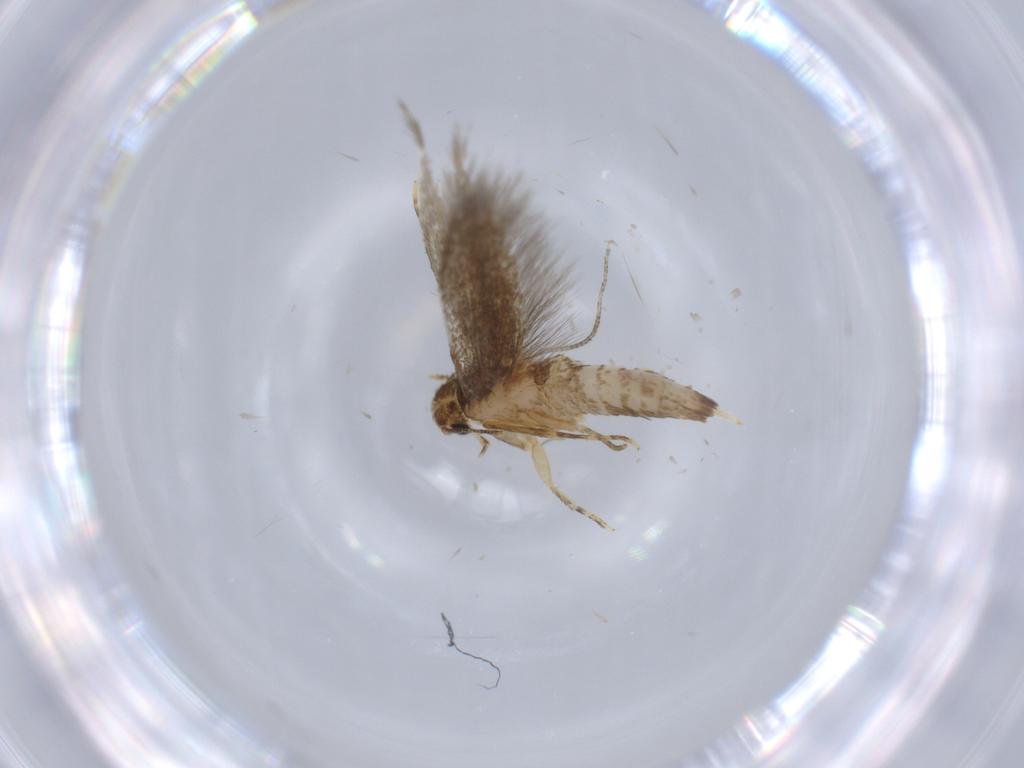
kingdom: Animalia
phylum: Arthropoda
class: Insecta
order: Lepidoptera
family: Tineidae
